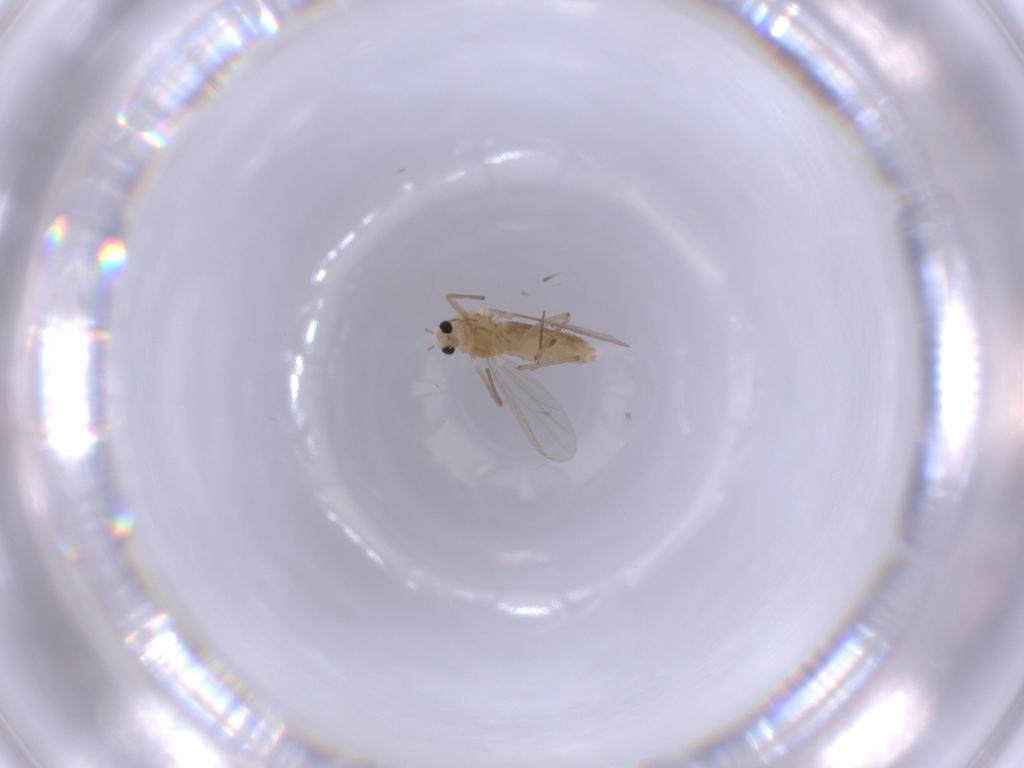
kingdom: Animalia
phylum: Arthropoda
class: Insecta
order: Diptera
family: Chironomidae
